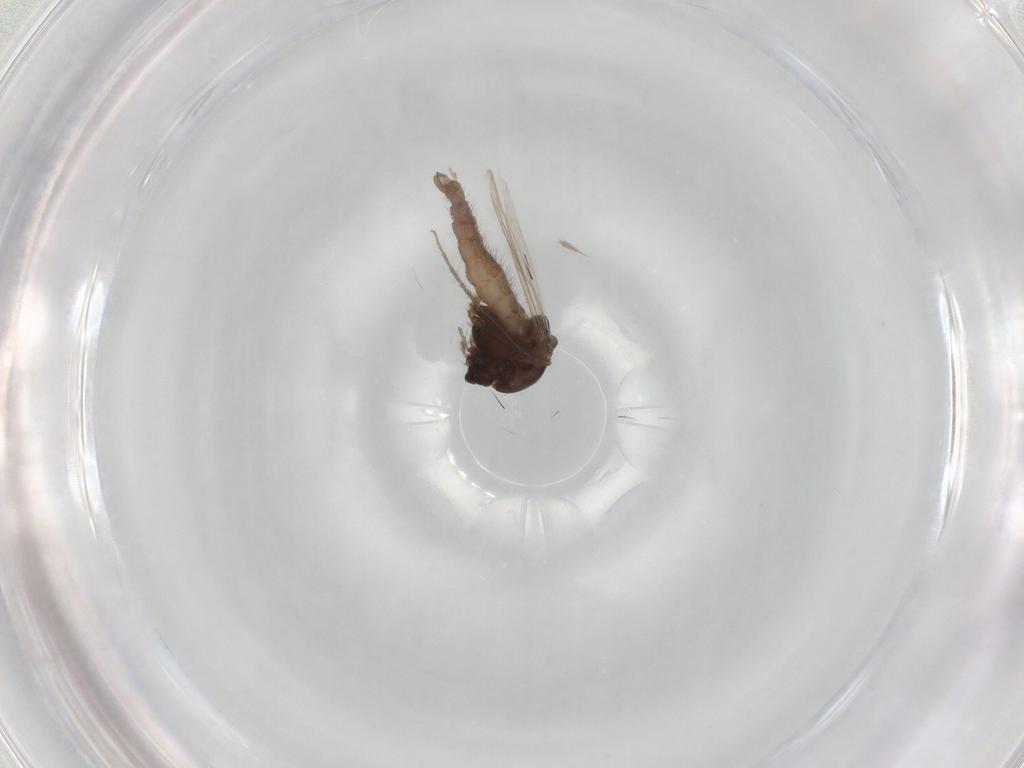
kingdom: Animalia
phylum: Arthropoda
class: Insecta
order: Diptera
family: Chironomidae
